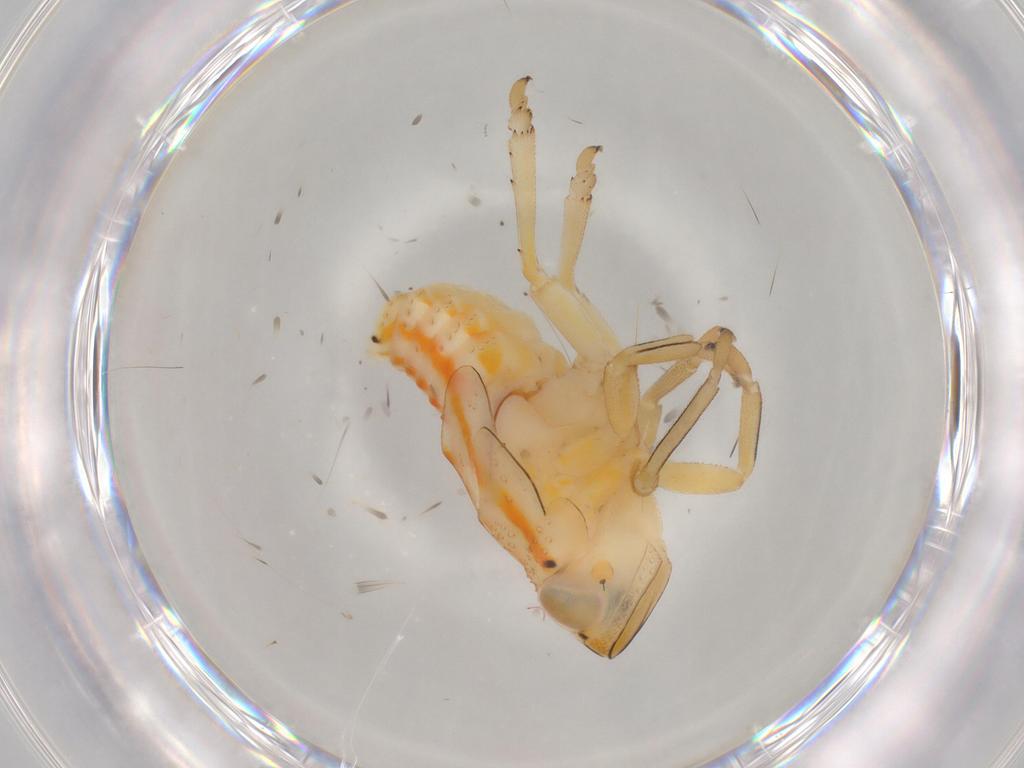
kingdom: Animalia
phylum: Arthropoda
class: Insecta
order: Hemiptera
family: Issidae
